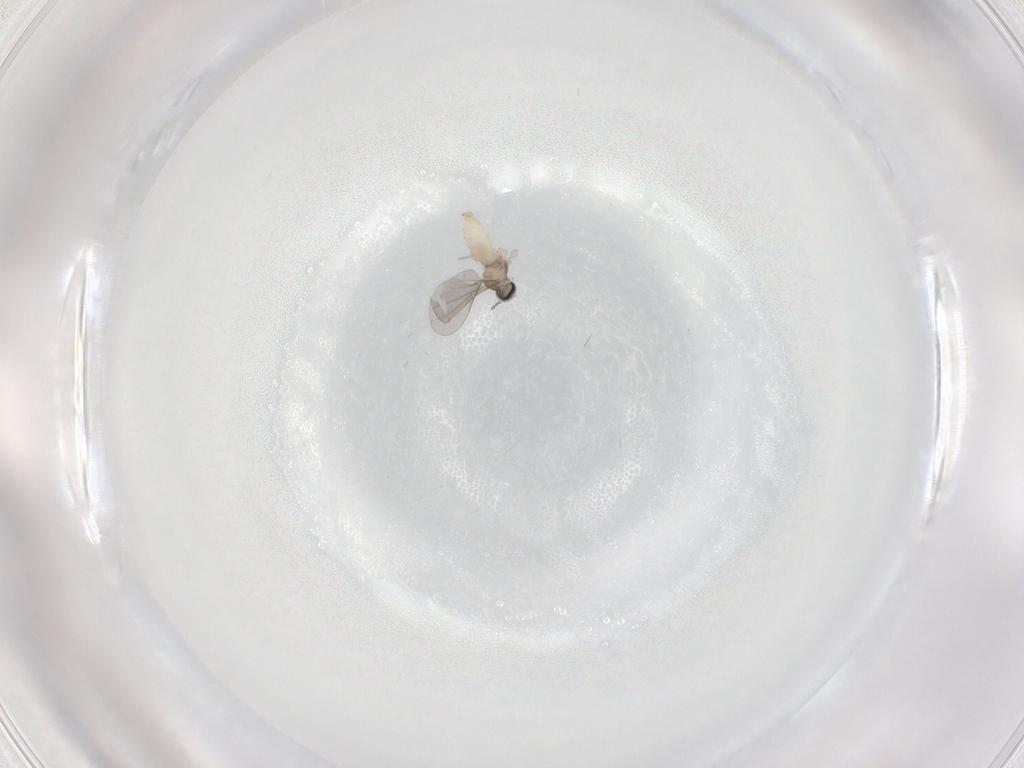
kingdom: Animalia
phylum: Arthropoda
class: Insecta
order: Diptera
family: Cecidomyiidae
